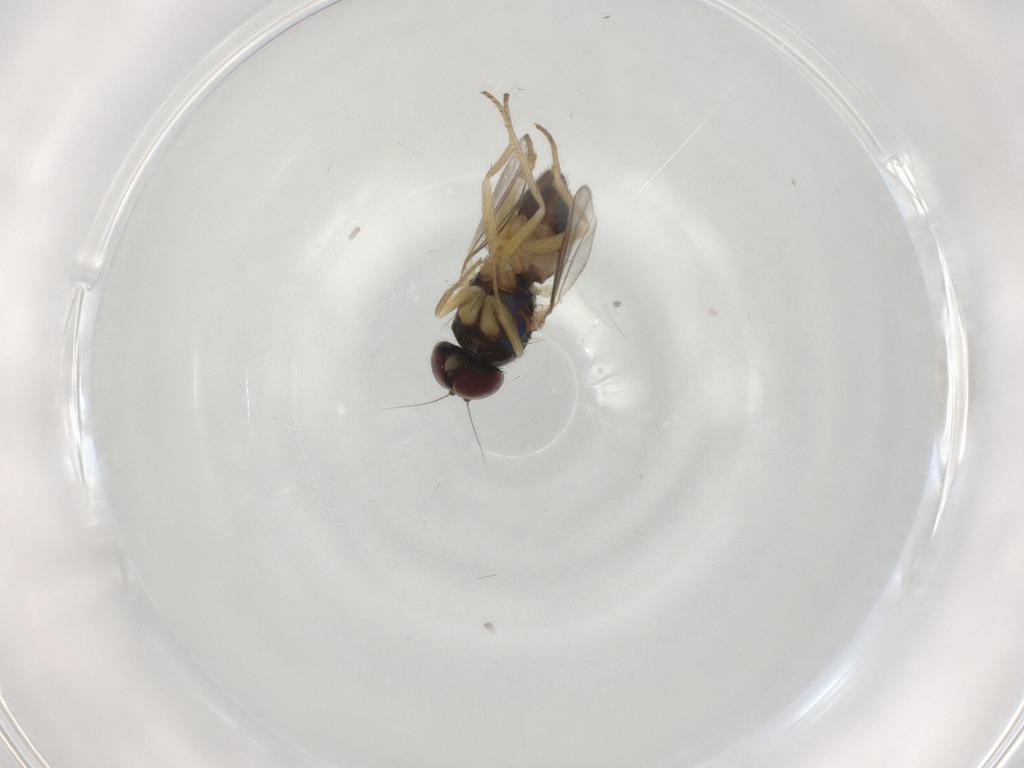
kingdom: Animalia
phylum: Arthropoda
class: Insecta
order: Diptera
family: Dolichopodidae
